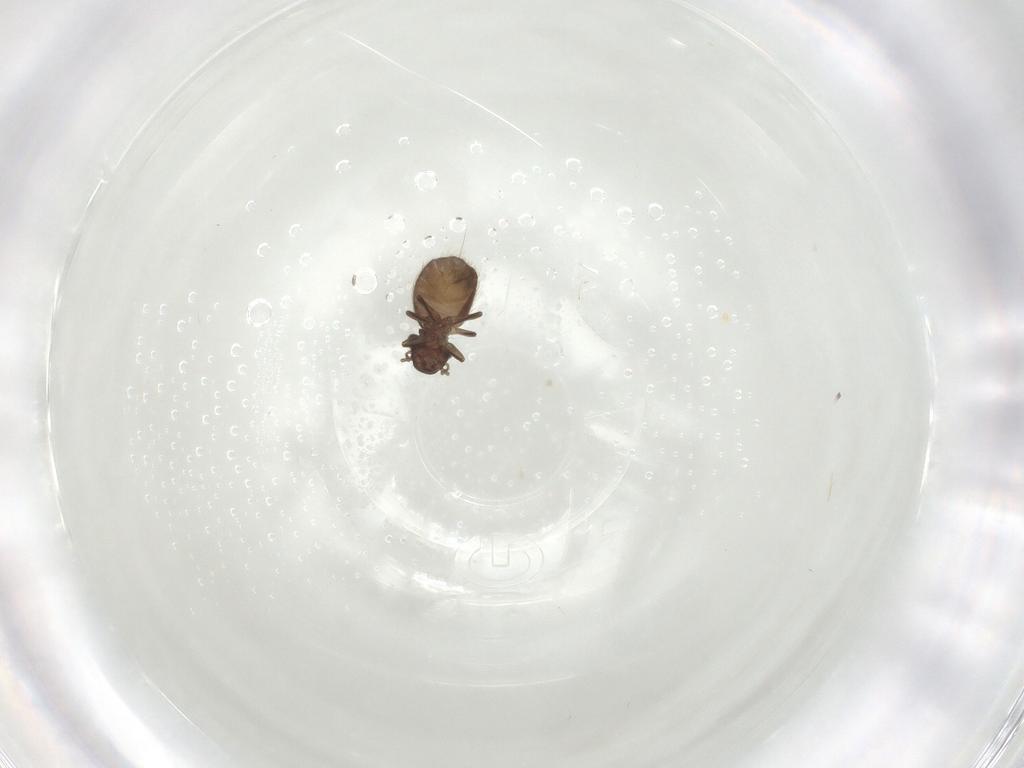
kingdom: Animalia
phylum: Arthropoda
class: Insecta
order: Psocodea
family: Trogiidae
